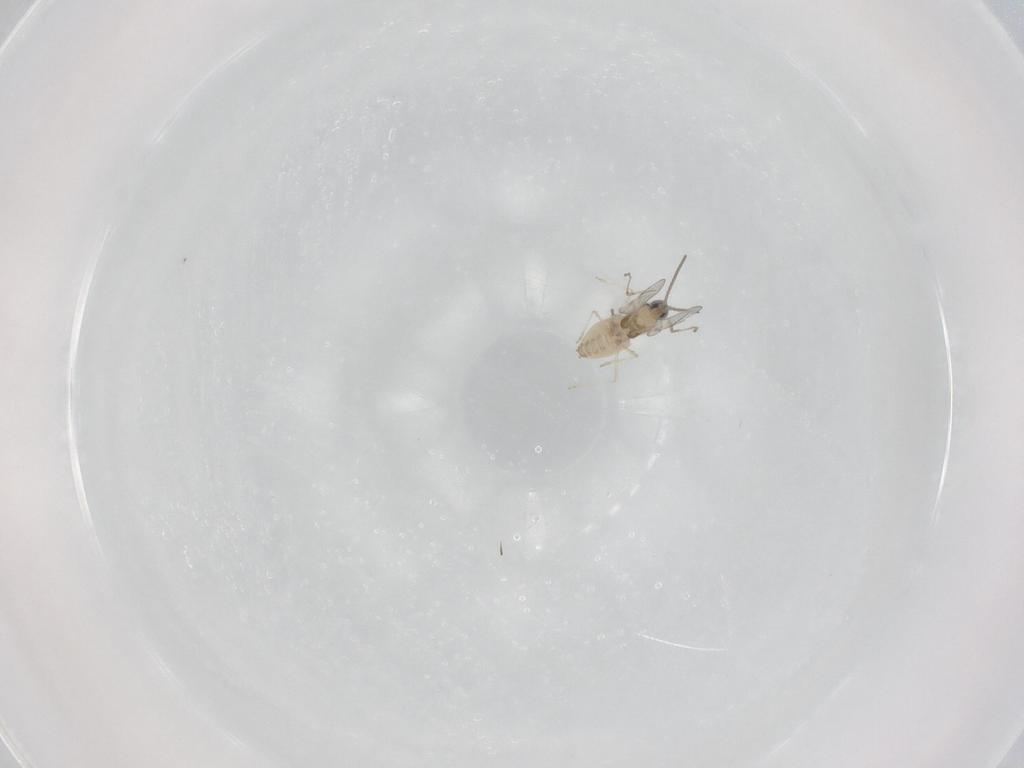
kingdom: Animalia
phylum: Arthropoda
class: Insecta
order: Diptera
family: Cecidomyiidae
